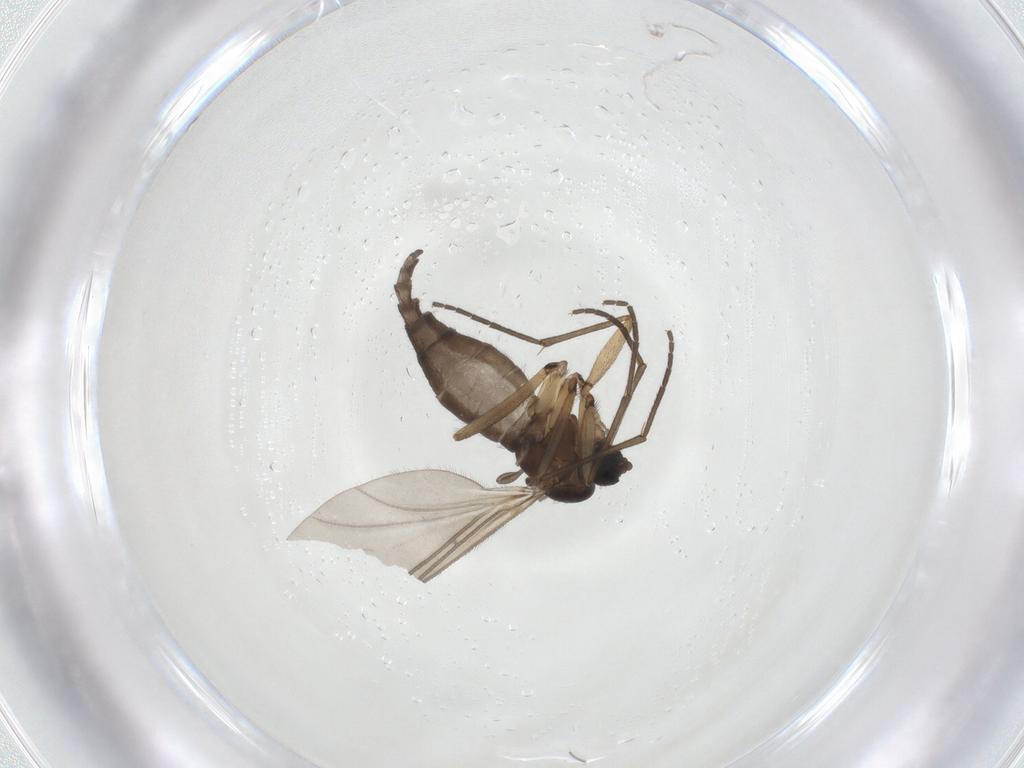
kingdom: Animalia
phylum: Arthropoda
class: Insecta
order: Diptera
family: Sciaridae
